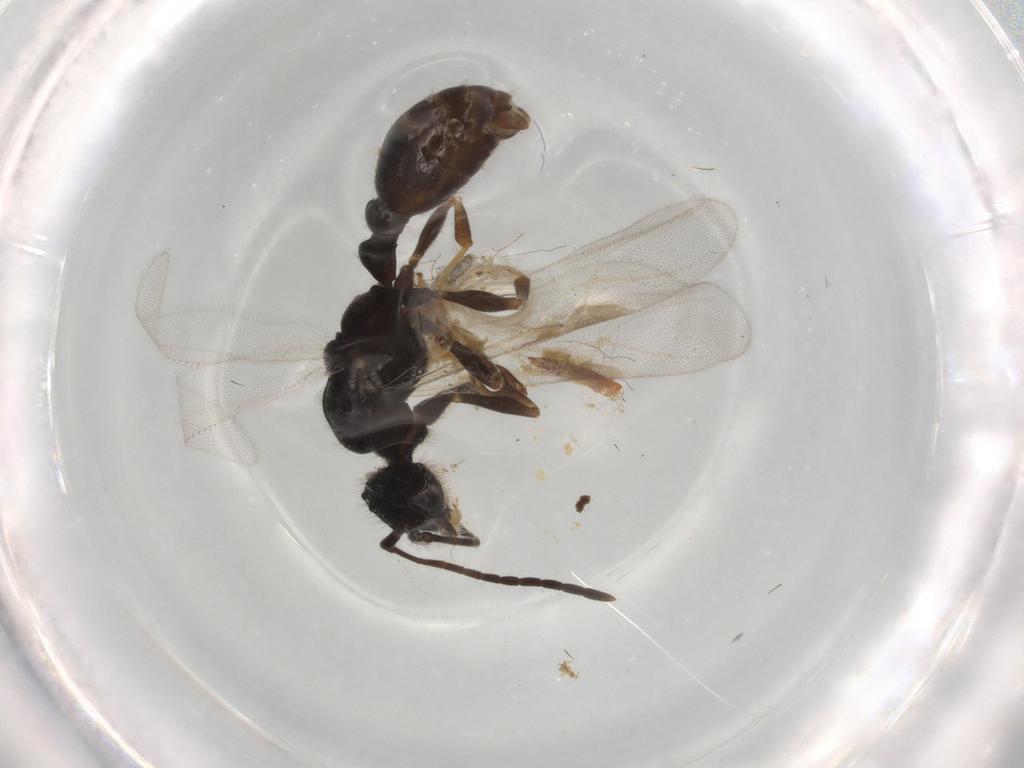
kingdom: Animalia
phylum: Arthropoda
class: Insecta
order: Hymenoptera
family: Formicidae
